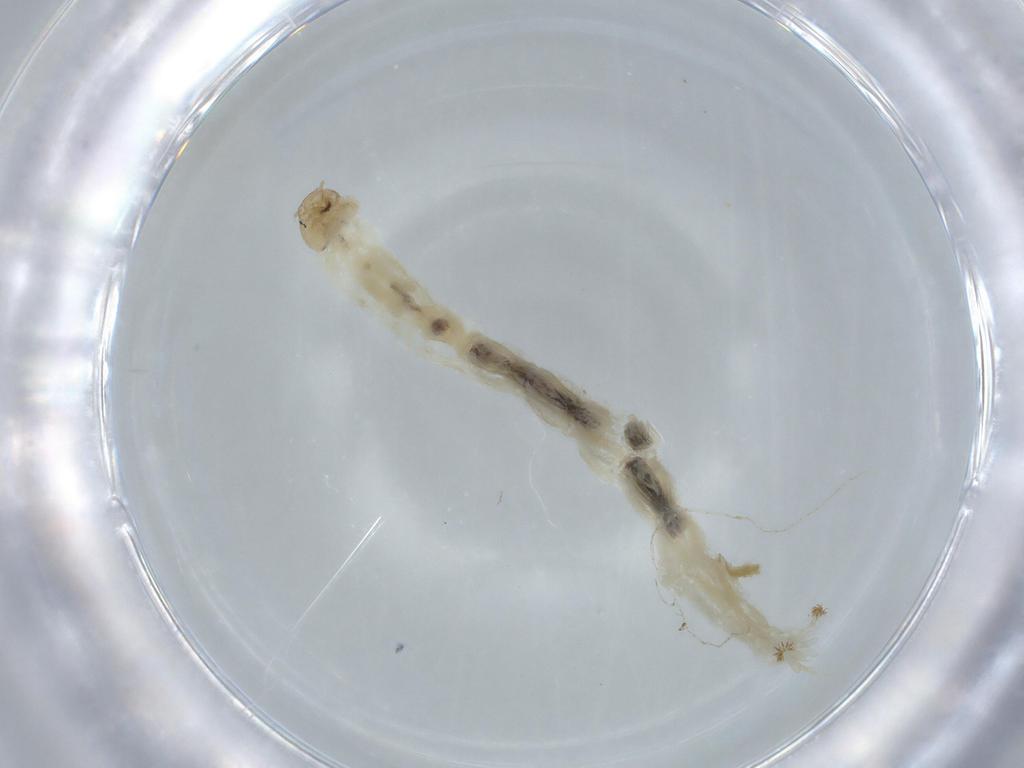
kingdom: Animalia
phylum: Arthropoda
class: Insecta
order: Diptera
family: Chironomidae
